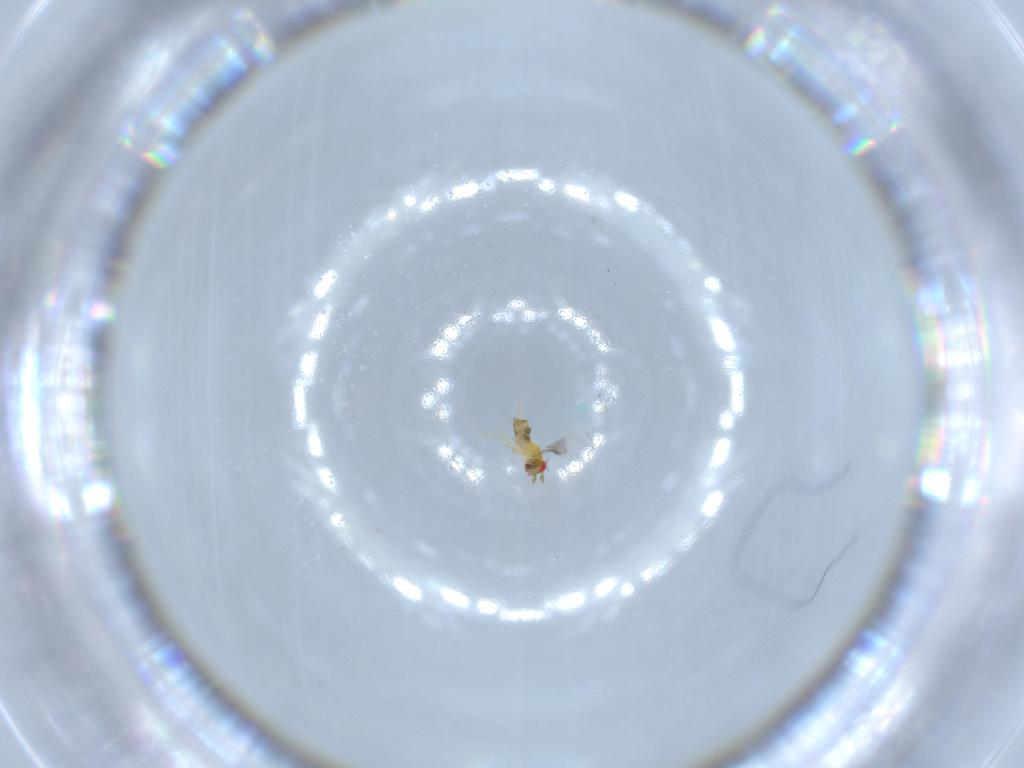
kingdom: Animalia
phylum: Arthropoda
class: Insecta
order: Hymenoptera
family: Trichogrammatidae
